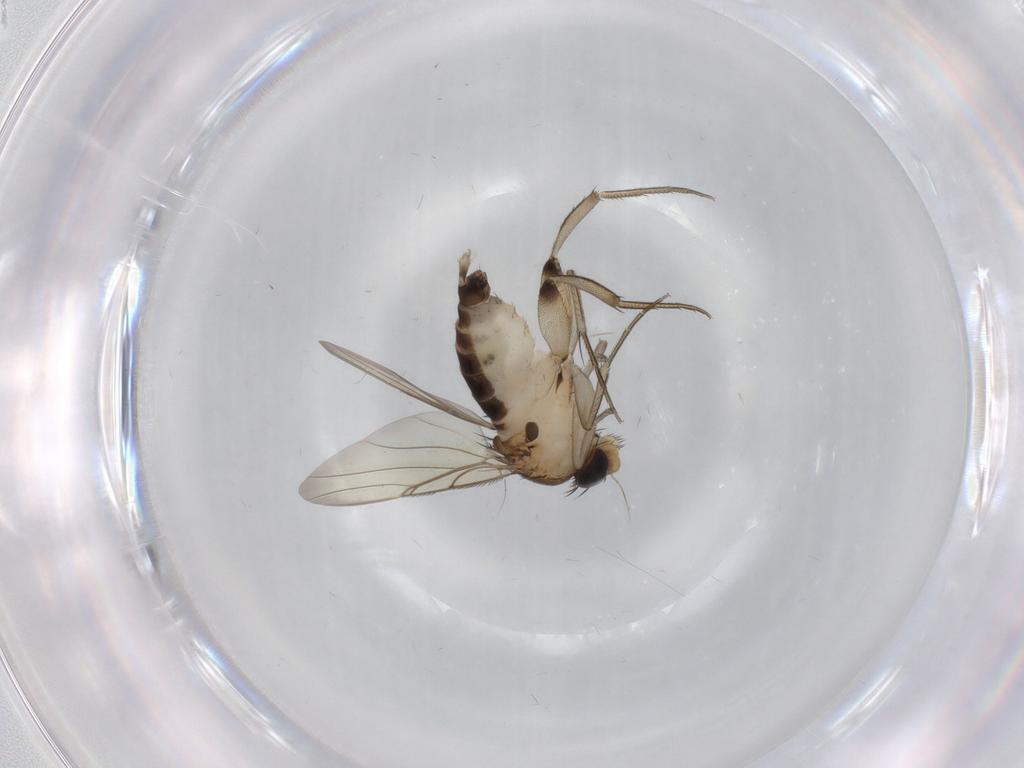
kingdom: Animalia
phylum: Arthropoda
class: Insecta
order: Diptera
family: Phoridae
